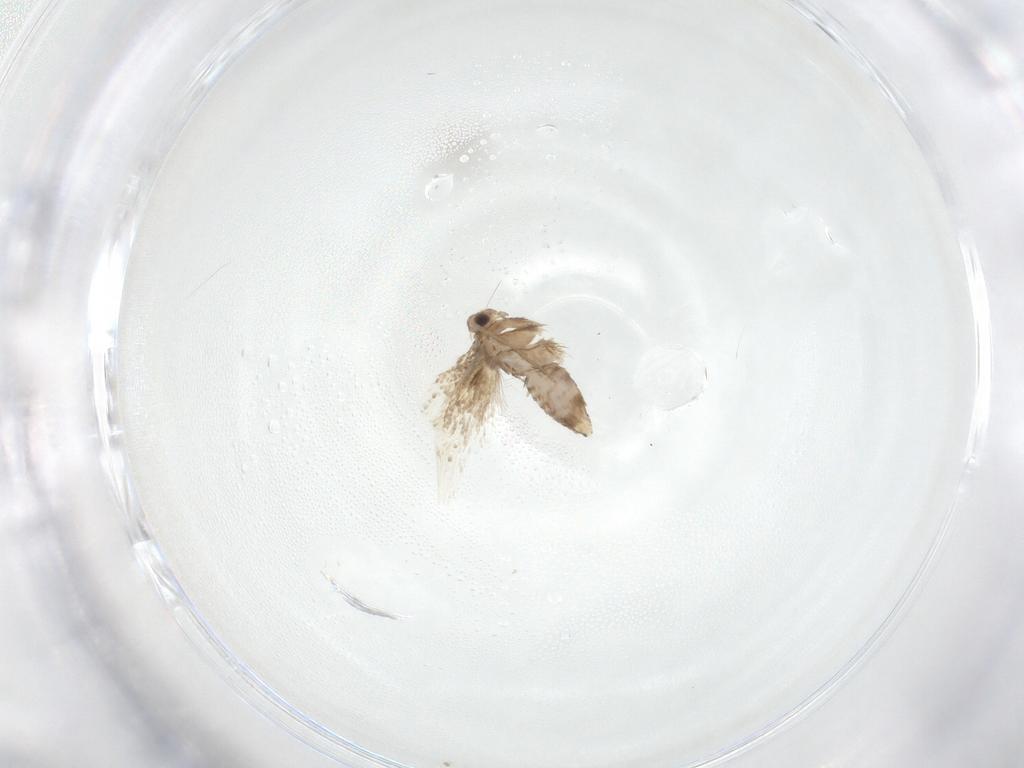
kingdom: Animalia
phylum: Arthropoda
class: Insecta
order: Lepidoptera
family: Nepticulidae
